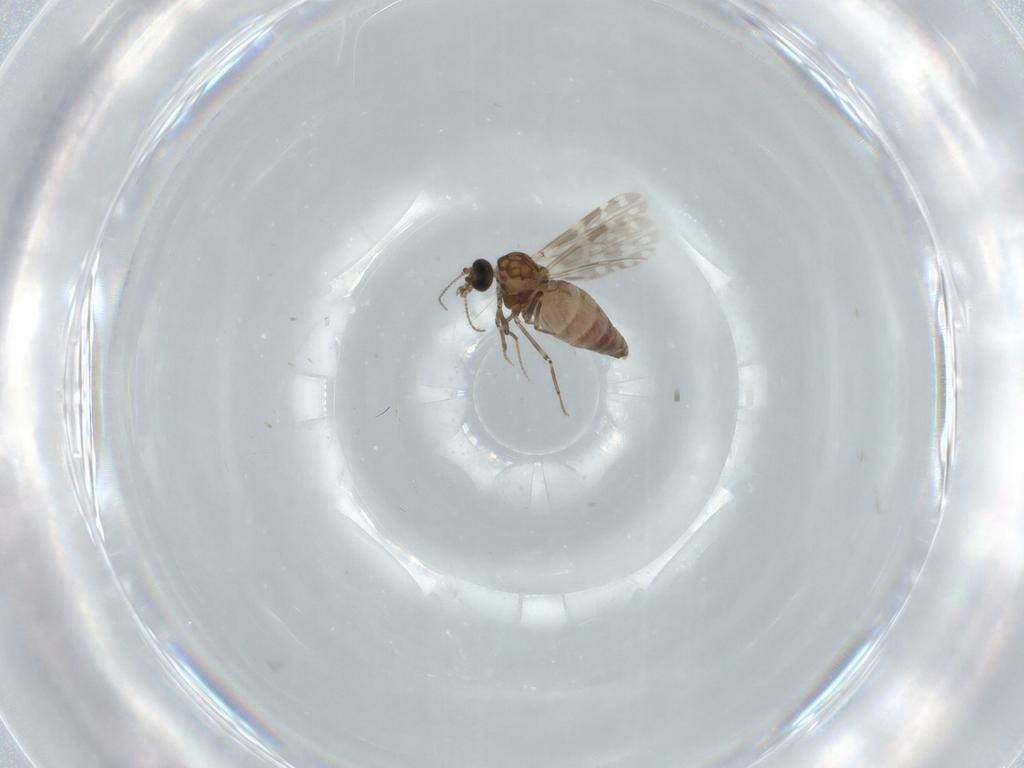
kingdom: Animalia
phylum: Arthropoda
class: Insecta
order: Diptera
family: Ceratopogonidae
